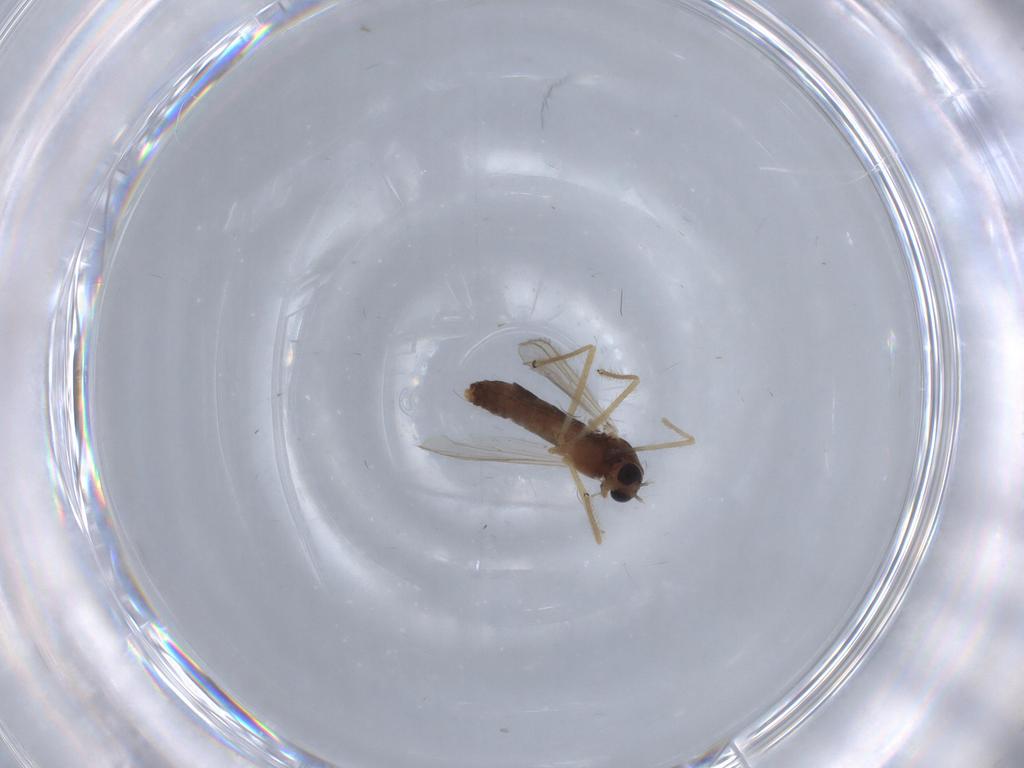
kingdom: Animalia
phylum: Arthropoda
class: Insecta
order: Diptera
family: Chironomidae
